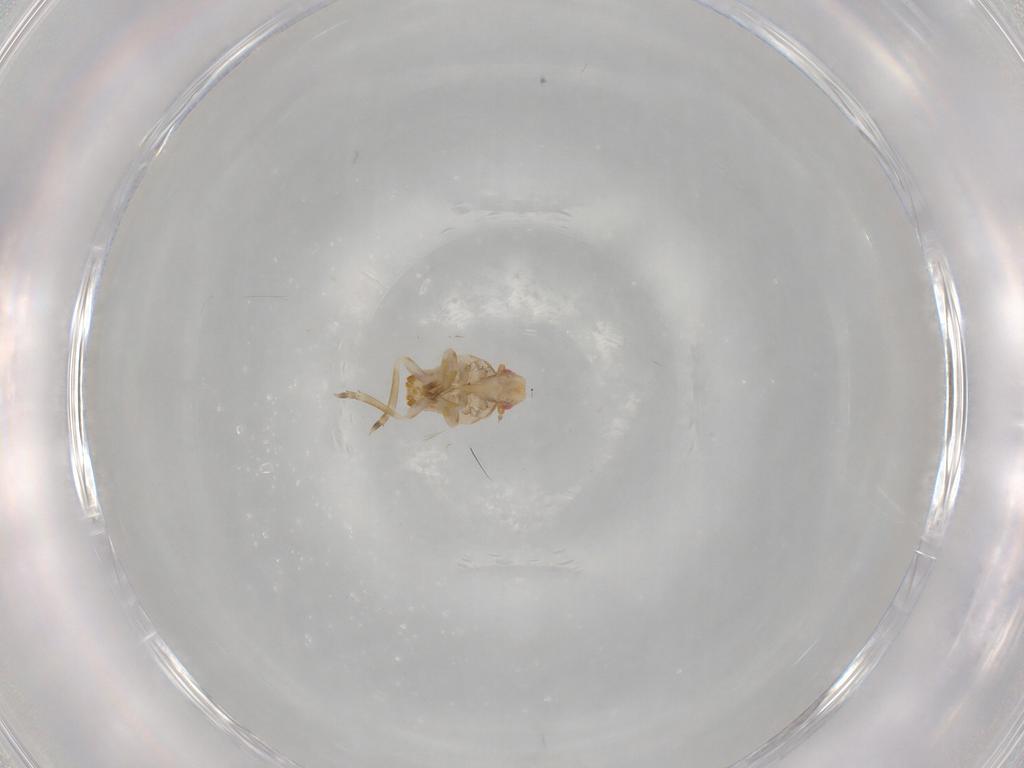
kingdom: Animalia
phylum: Arthropoda
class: Insecta
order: Hemiptera
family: Flatidae
